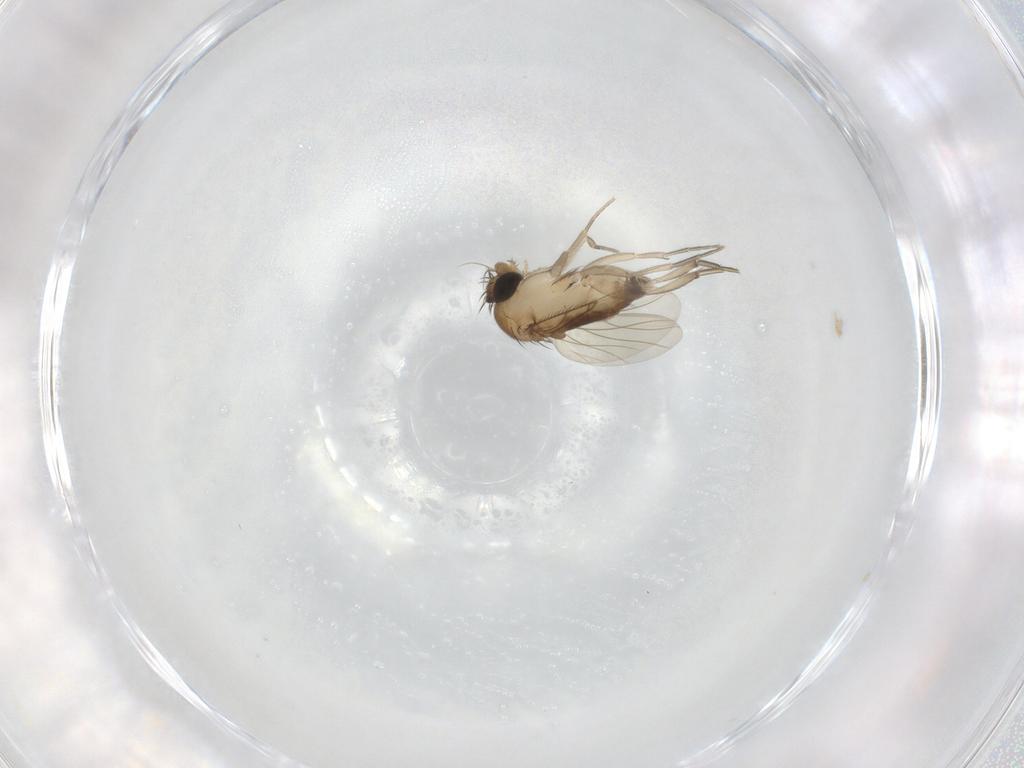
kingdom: Animalia
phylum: Arthropoda
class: Insecta
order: Diptera
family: Phoridae
